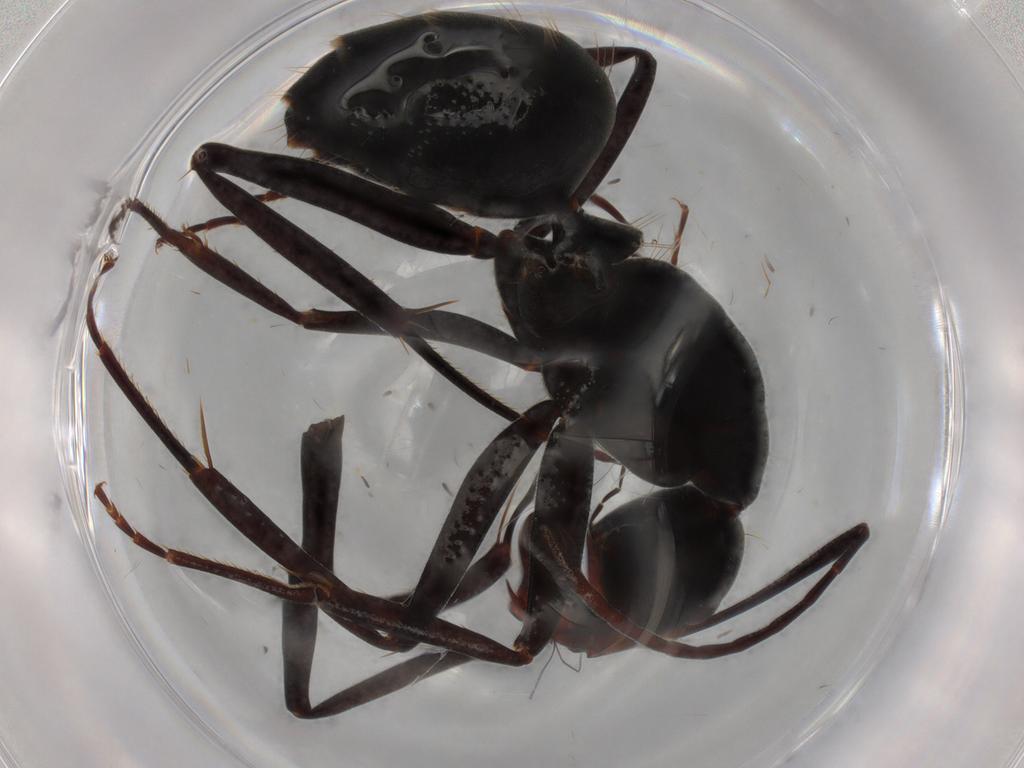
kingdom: Animalia
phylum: Arthropoda
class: Insecta
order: Hymenoptera
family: Formicidae
